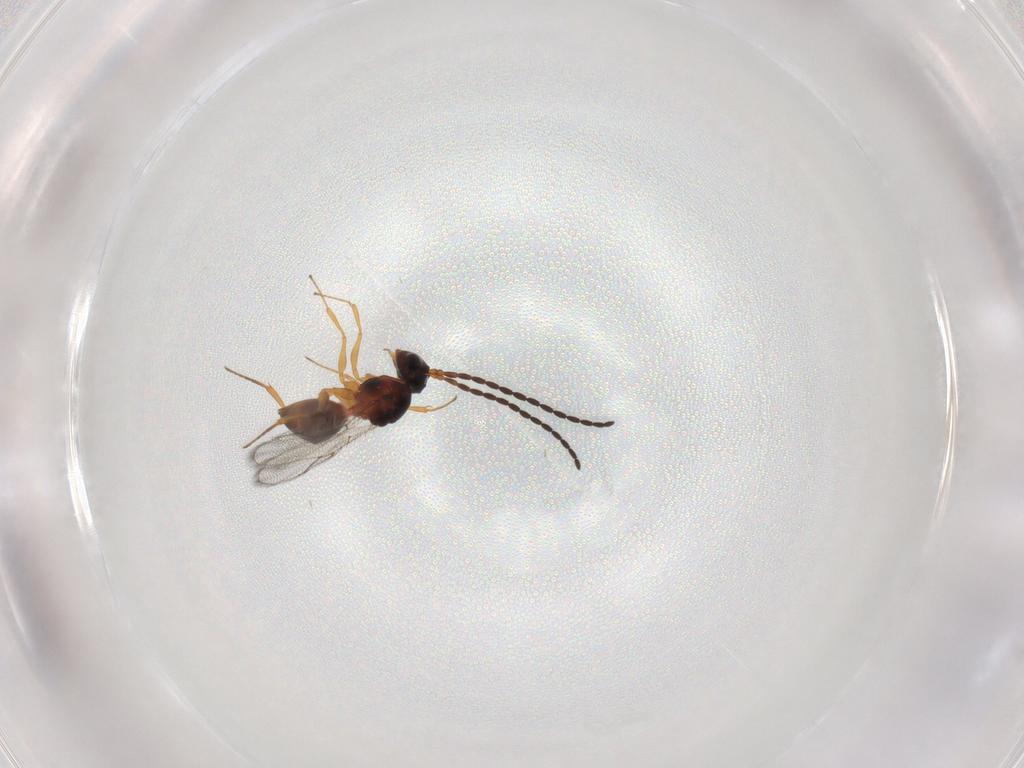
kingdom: Animalia
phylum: Arthropoda
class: Insecta
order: Hymenoptera
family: Figitidae
